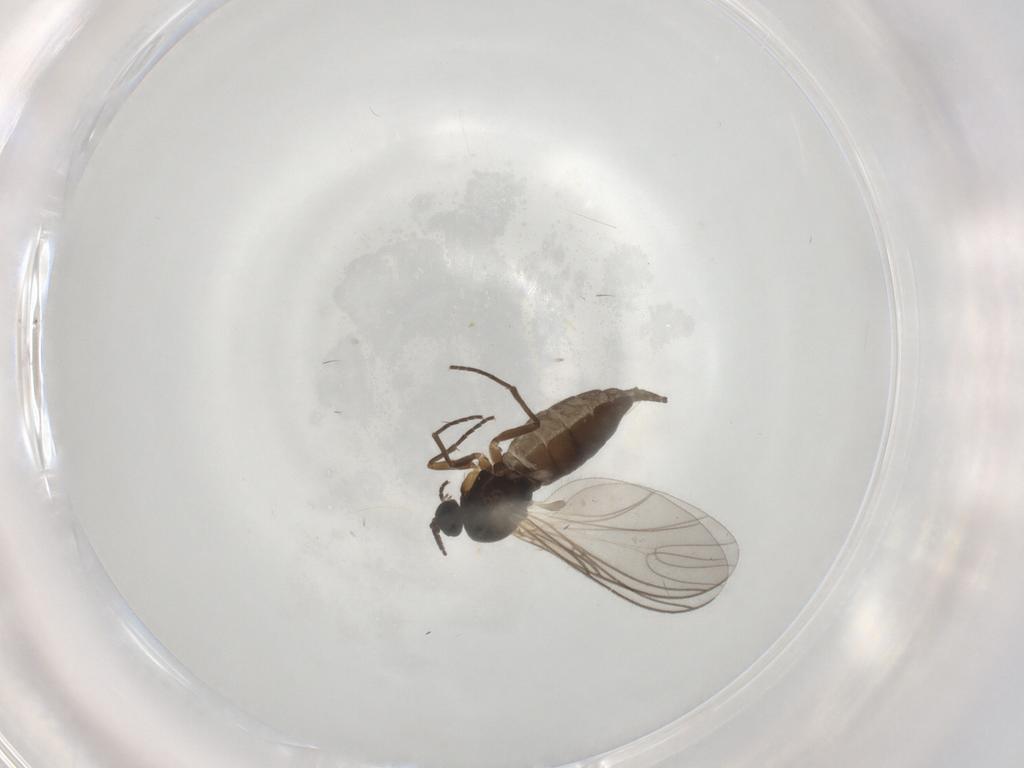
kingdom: Animalia
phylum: Arthropoda
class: Insecta
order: Diptera
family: Sciaridae
